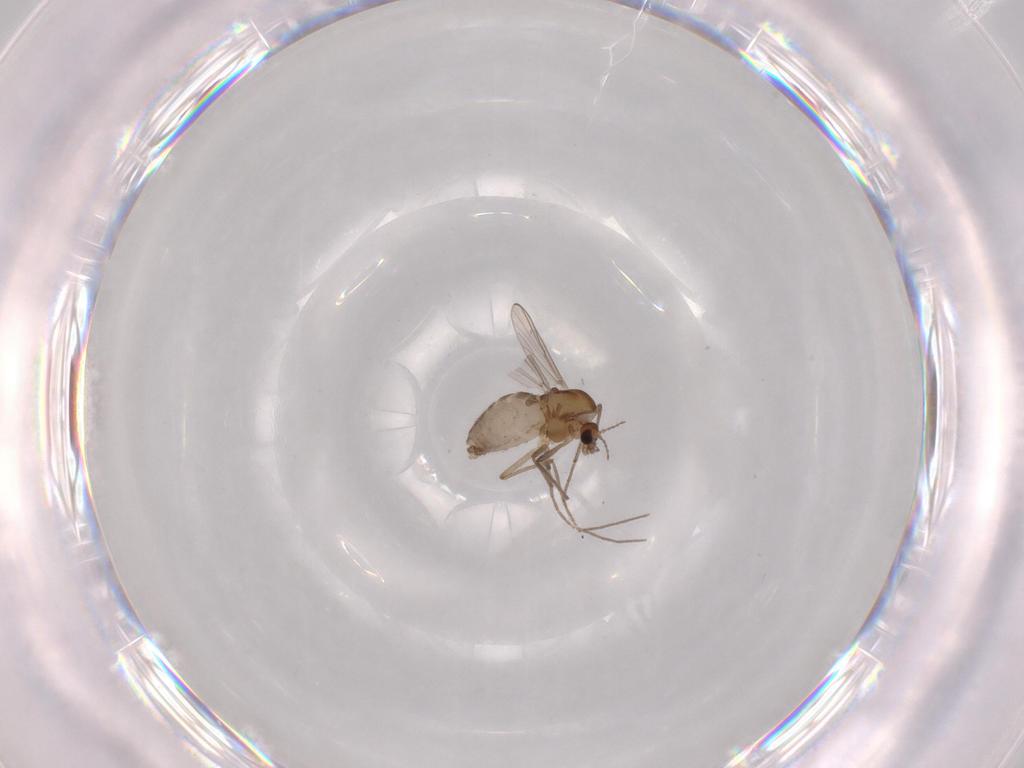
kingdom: Animalia
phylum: Arthropoda
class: Insecta
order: Diptera
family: Chironomidae
